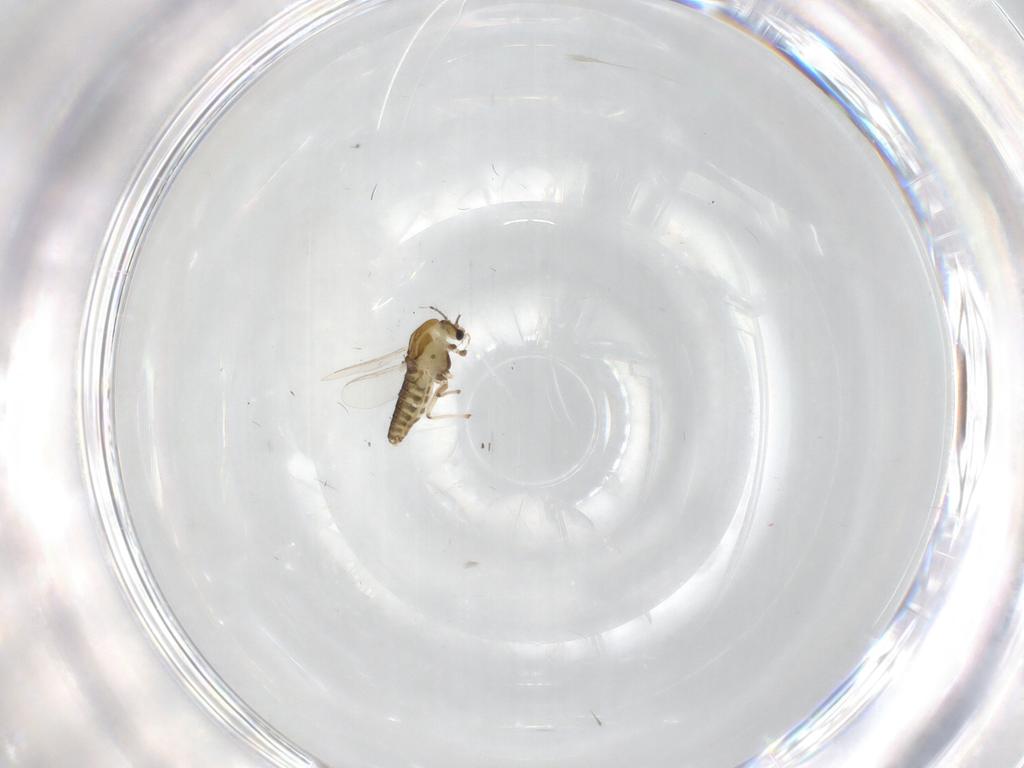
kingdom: Animalia
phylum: Arthropoda
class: Insecta
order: Diptera
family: Chironomidae
